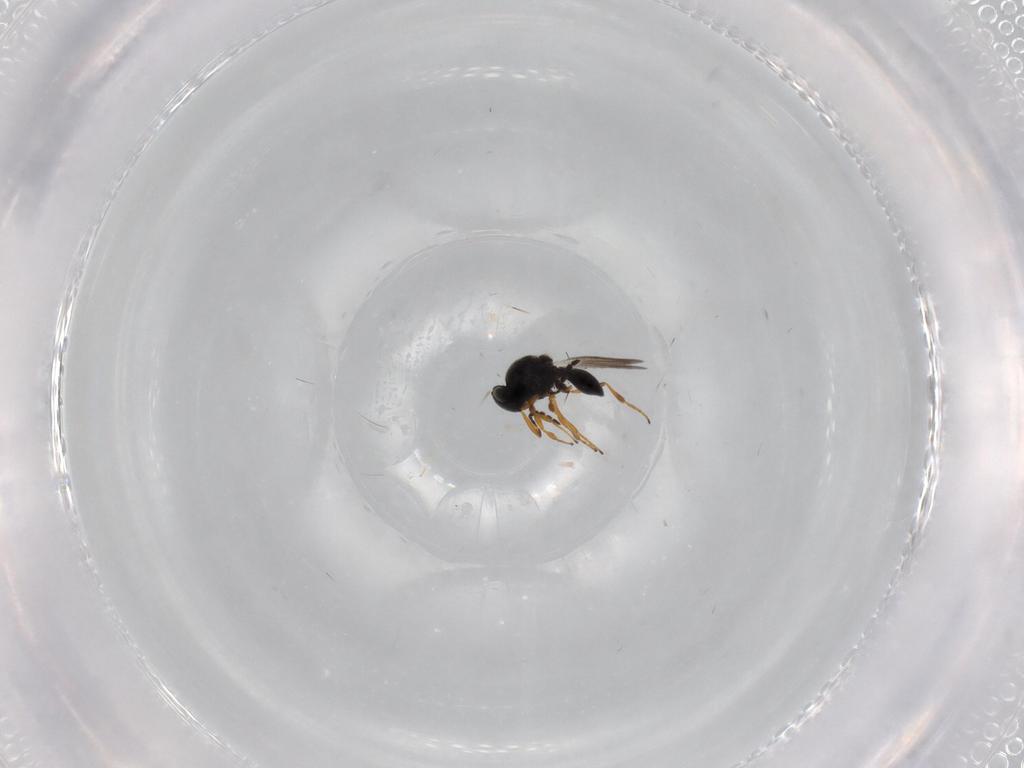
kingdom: Animalia
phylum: Arthropoda
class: Insecta
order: Hymenoptera
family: Platygastridae
